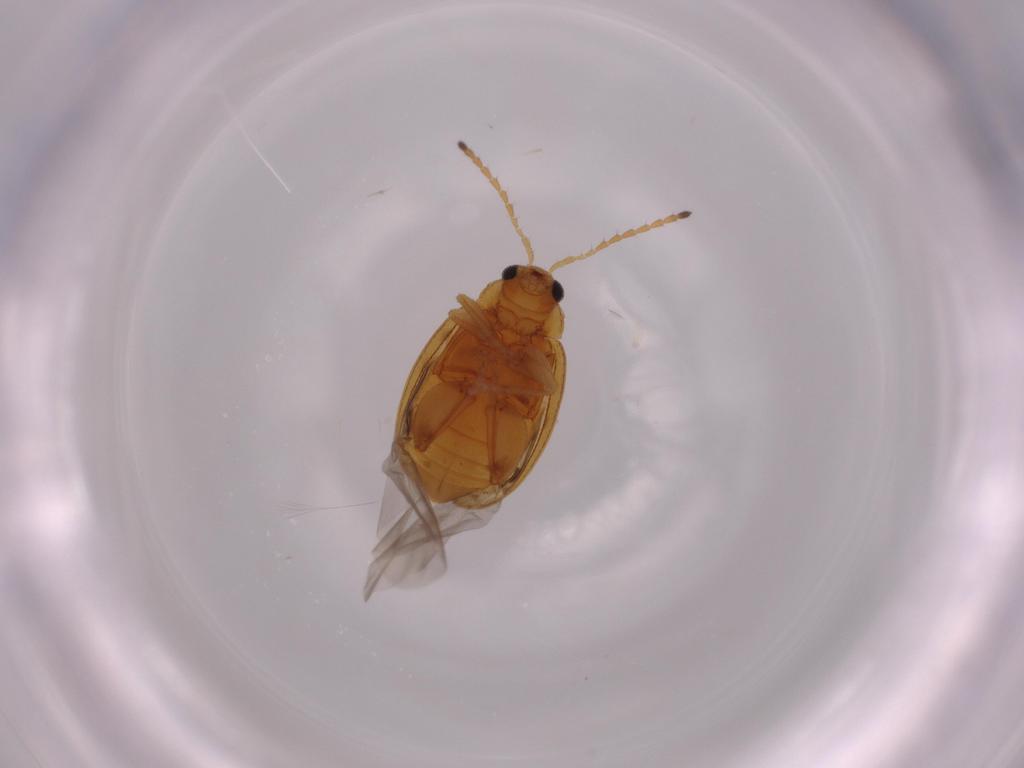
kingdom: Animalia
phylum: Arthropoda
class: Insecta
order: Coleoptera
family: Chrysomelidae
